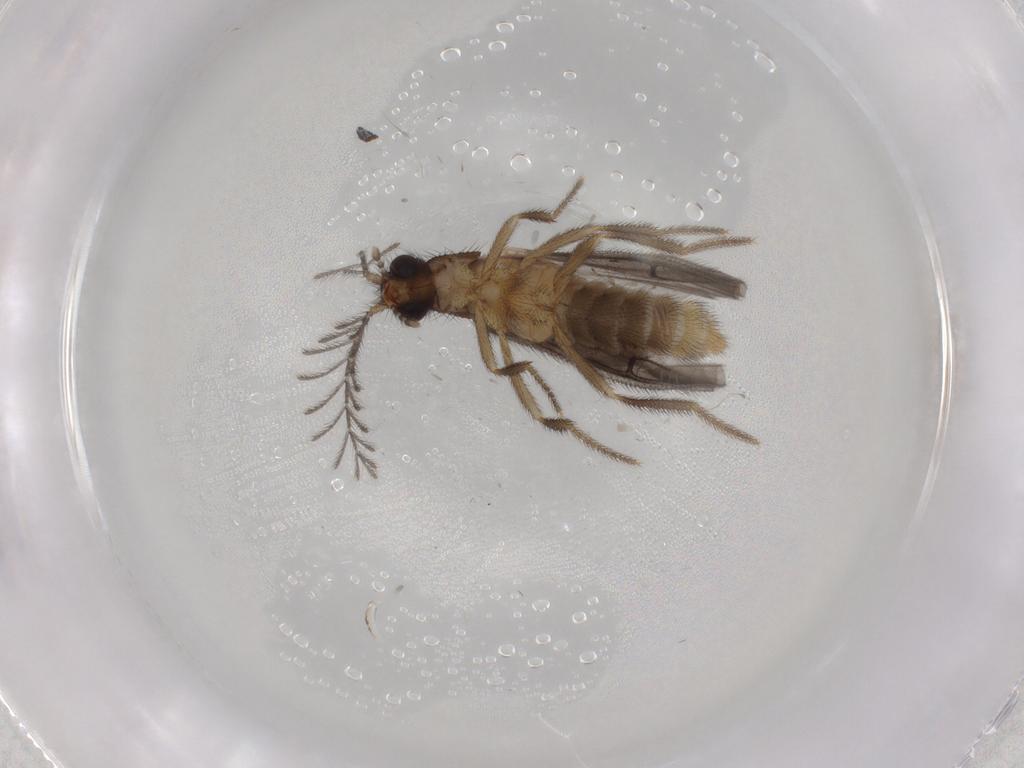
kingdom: Animalia
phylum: Arthropoda
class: Insecta
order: Coleoptera
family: Phengodidae
